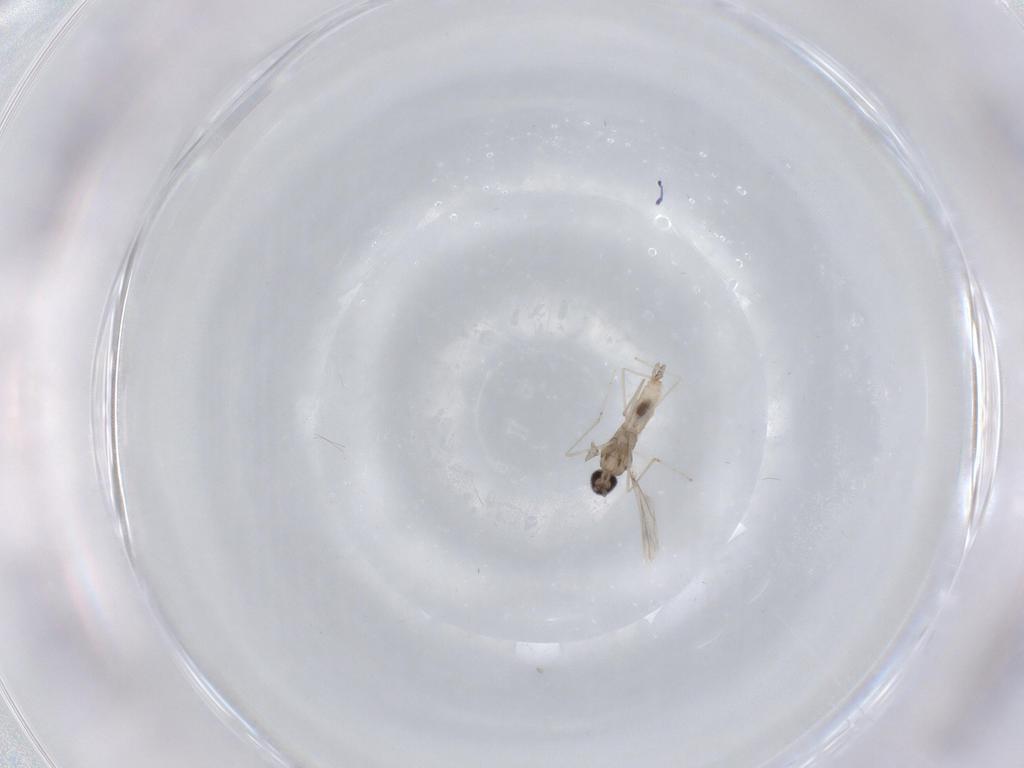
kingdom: Animalia
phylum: Arthropoda
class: Insecta
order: Diptera
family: Cecidomyiidae
